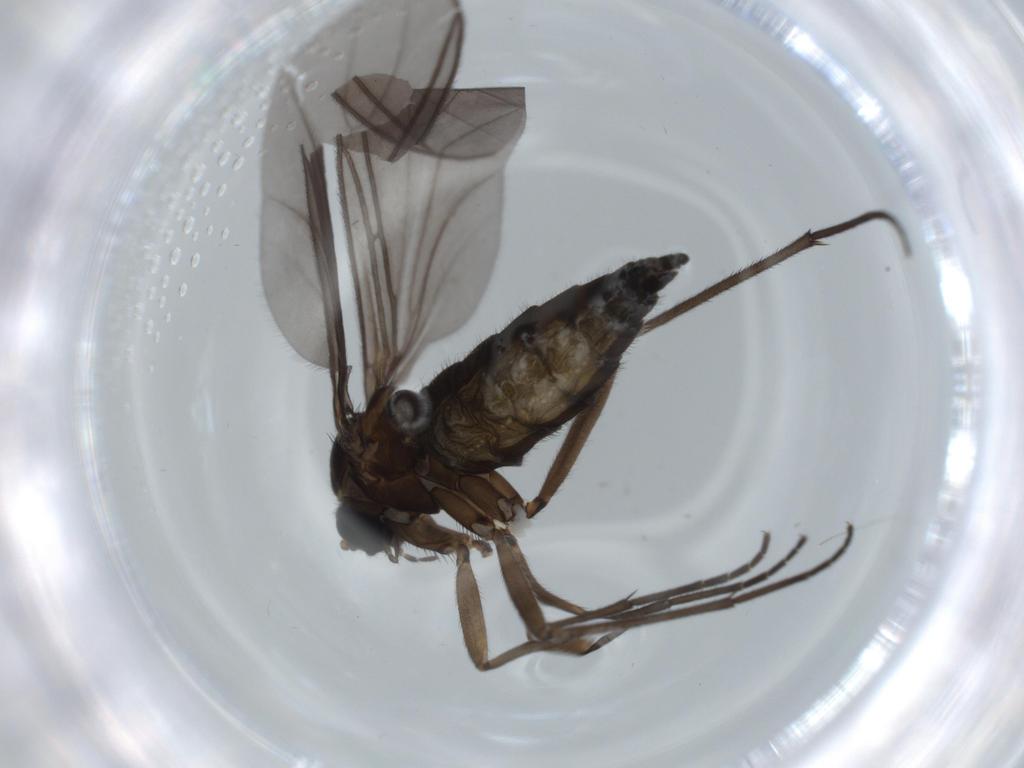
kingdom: Animalia
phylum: Arthropoda
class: Insecta
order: Diptera
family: Sciaridae
